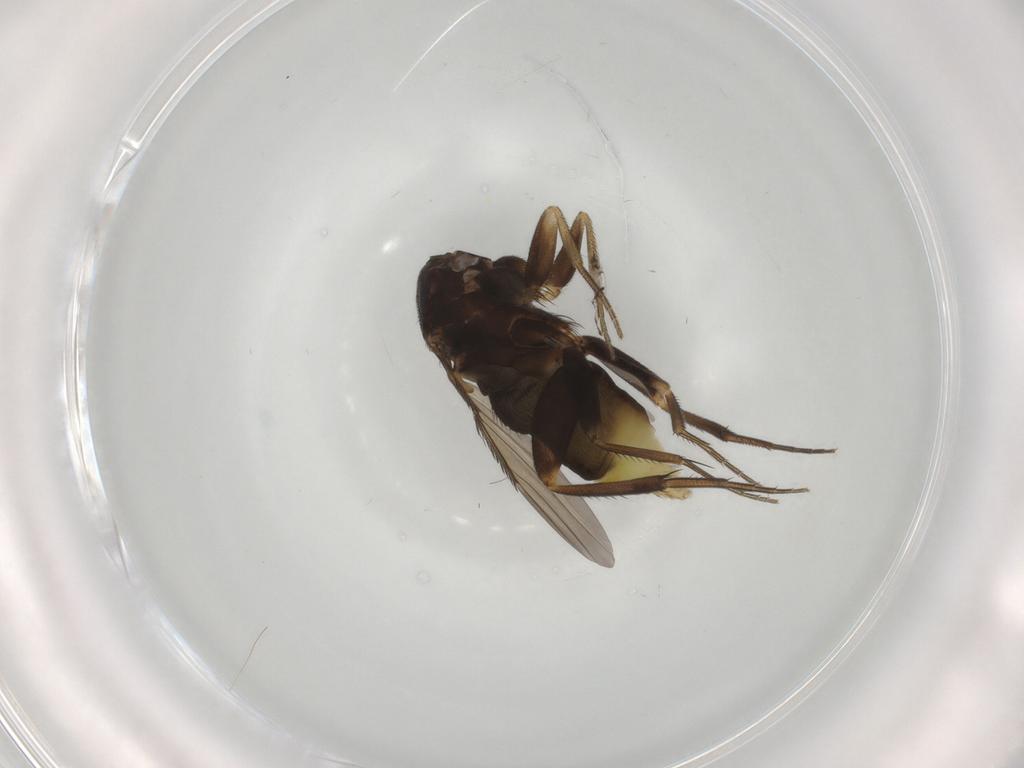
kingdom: Animalia
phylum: Arthropoda
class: Insecta
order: Diptera
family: Phoridae
